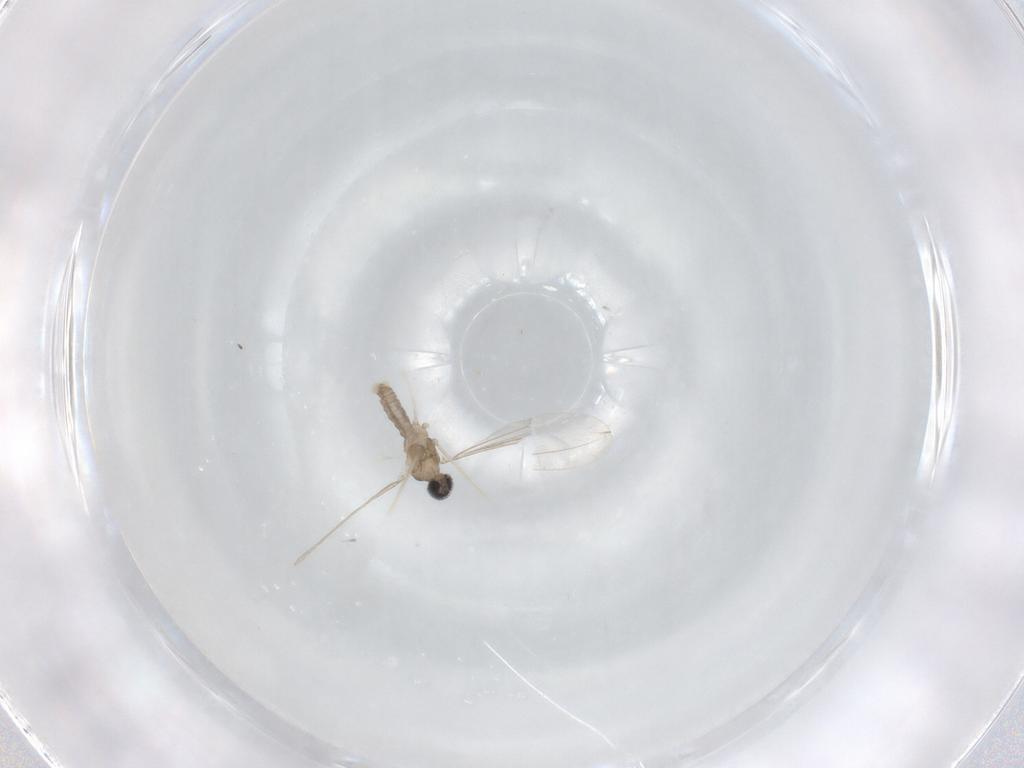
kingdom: Animalia
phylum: Arthropoda
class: Insecta
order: Diptera
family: Cecidomyiidae
